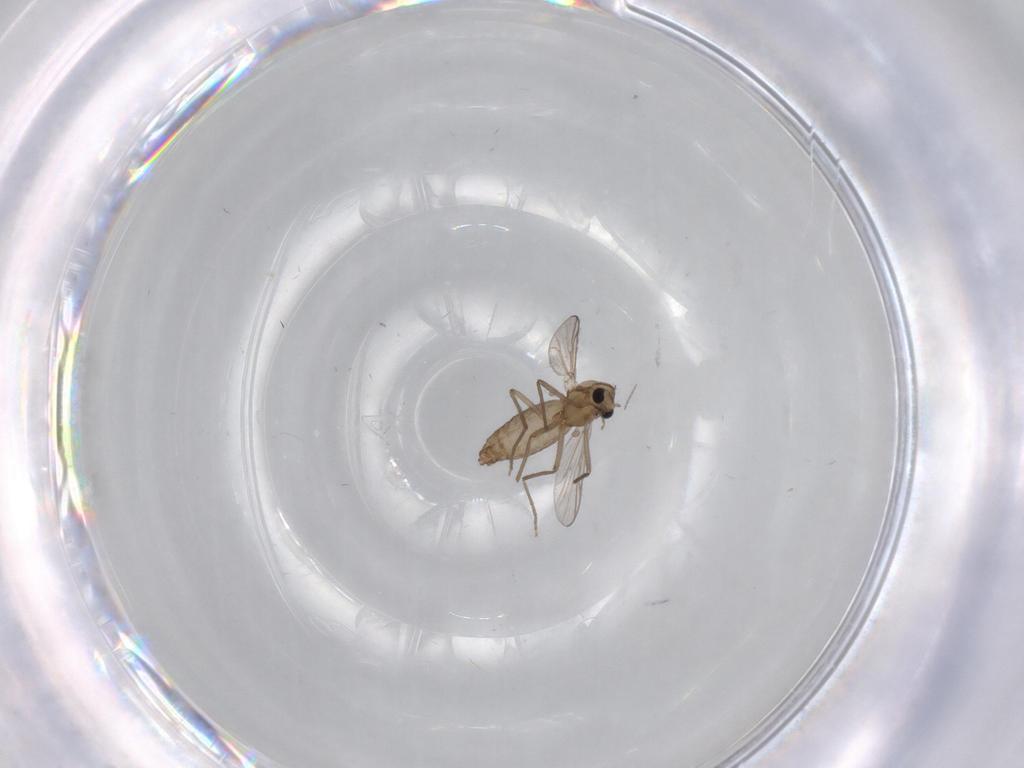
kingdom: Animalia
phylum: Arthropoda
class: Insecta
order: Diptera
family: Chironomidae
